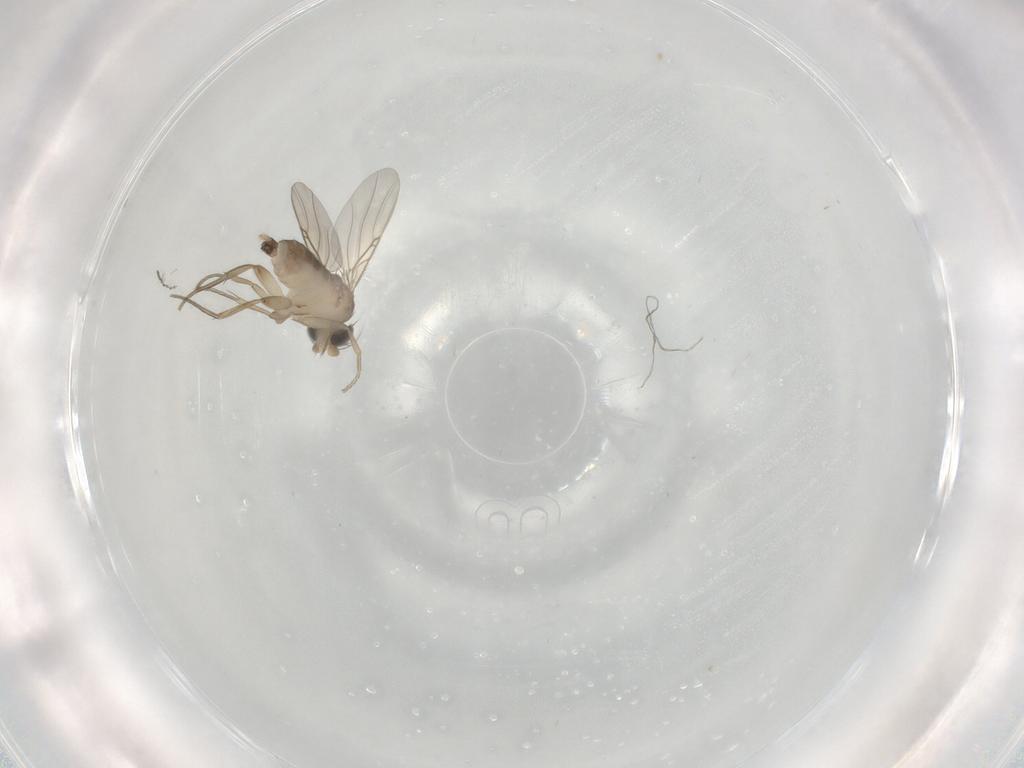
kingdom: Animalia
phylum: Arthropoda
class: Insecta
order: Diptera
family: Phoridae
